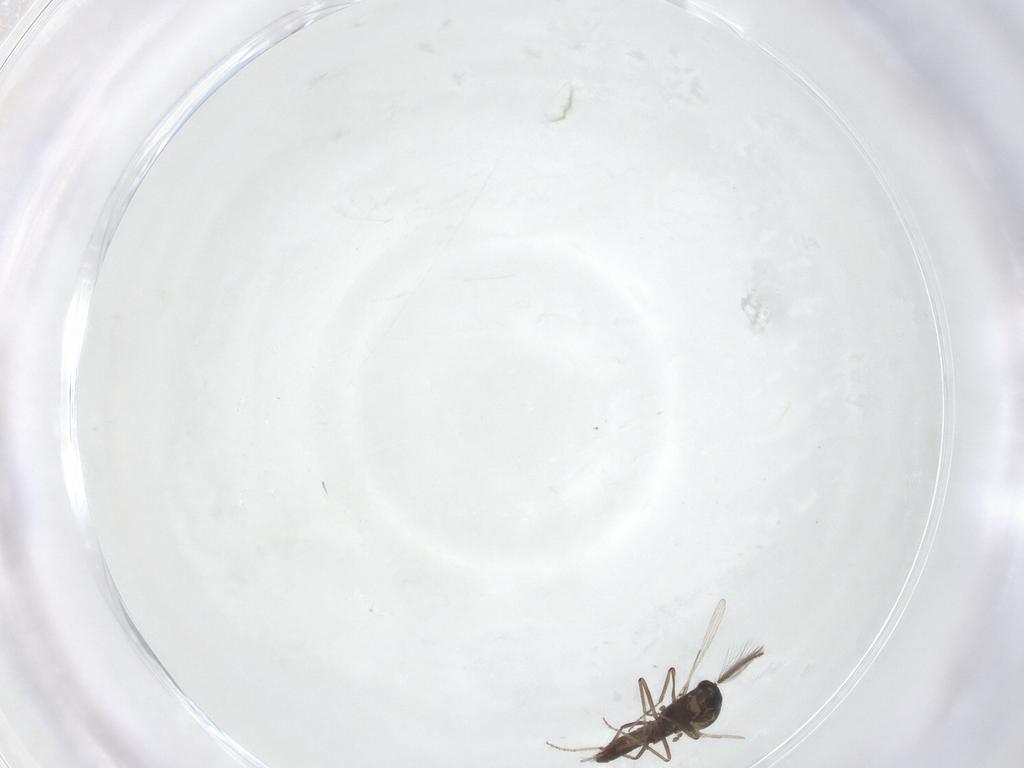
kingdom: Animalia
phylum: Arthropoda
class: Insecta
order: Diptera
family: Ceratopogonidae
